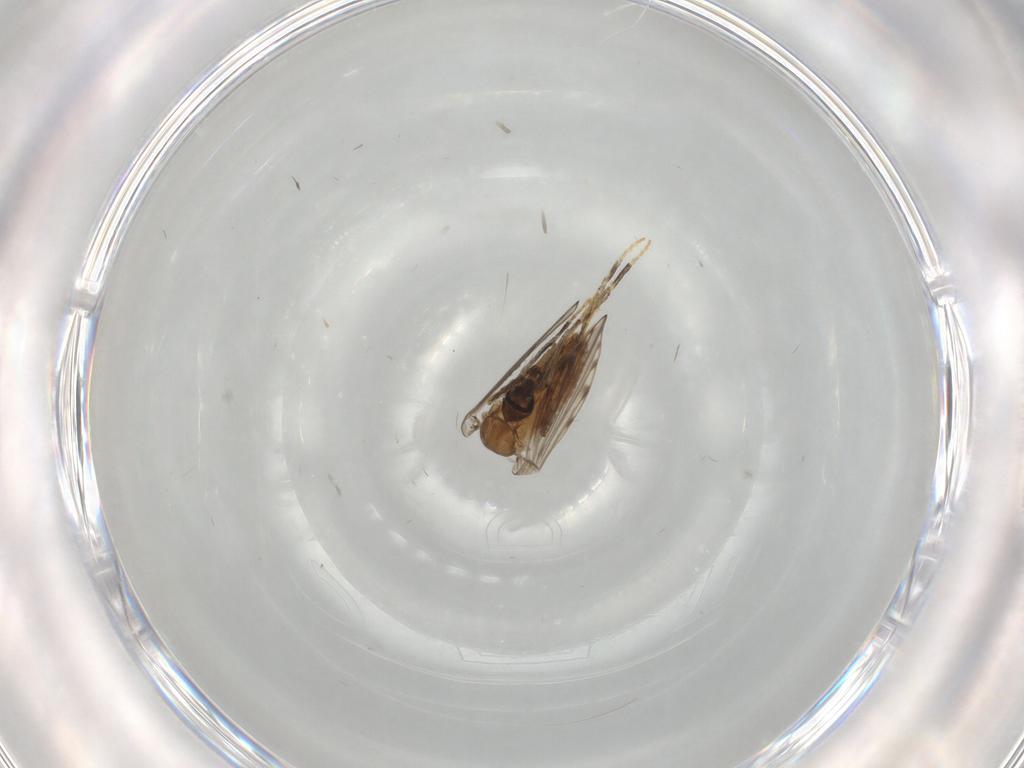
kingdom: Animalia
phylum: Arthropoda
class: Insecta
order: Diptera
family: Psychodidae
